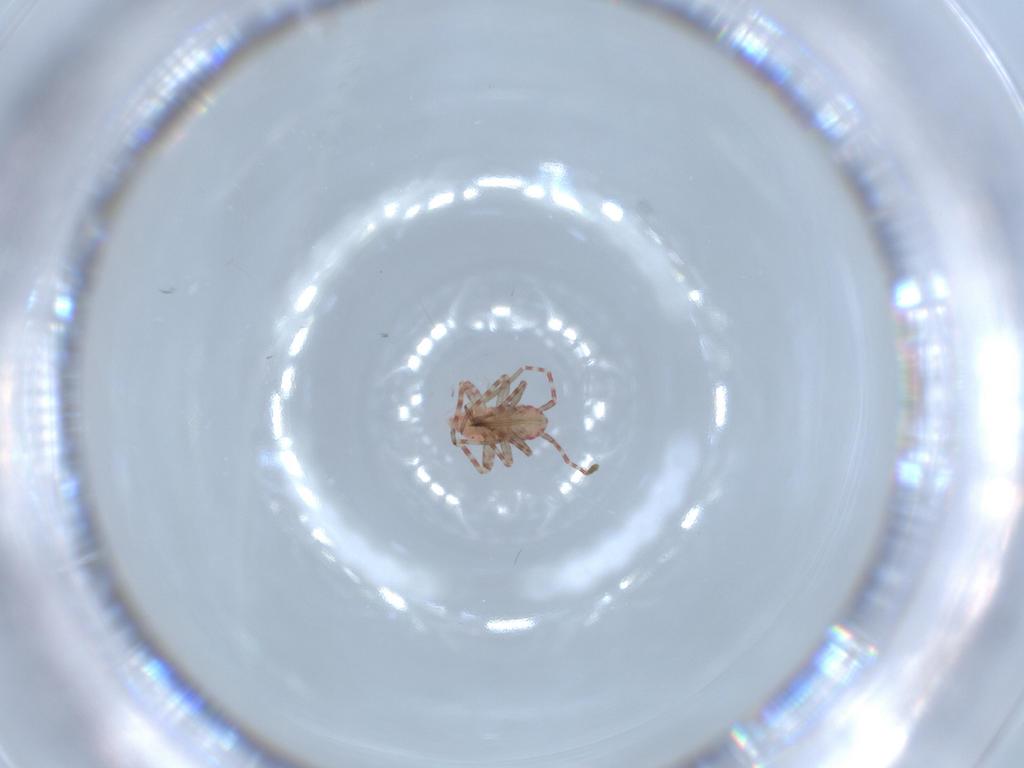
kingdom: Animalia
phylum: Arthropoda
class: Insecta
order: Hemiptera
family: Miridae
